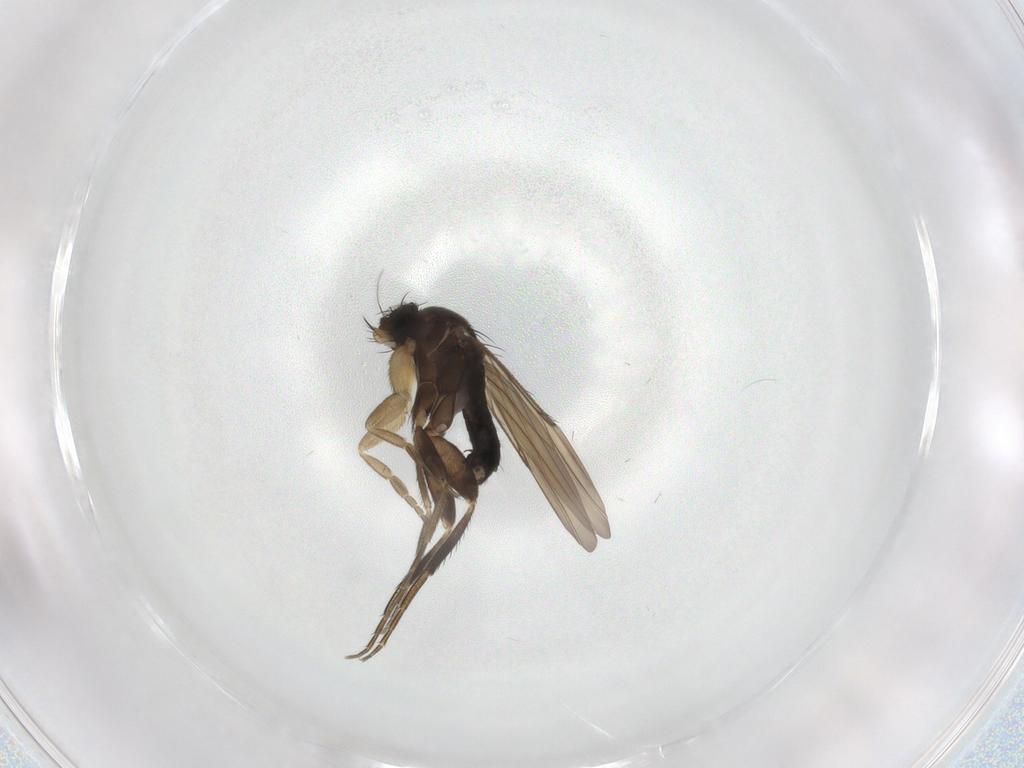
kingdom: Animalia
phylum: Arthropoda
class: Insecta
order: Diptera
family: Phoridae
